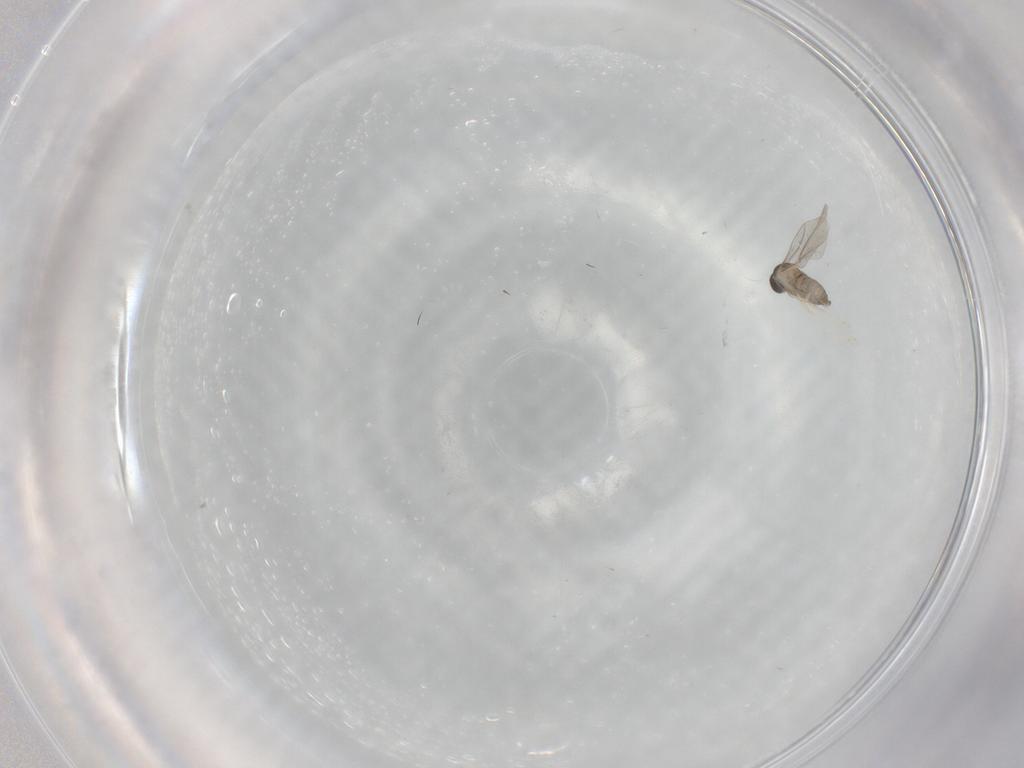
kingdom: Animalia
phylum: Arthropoda
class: Insecta
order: Diptera
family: Cecidomyiidae
